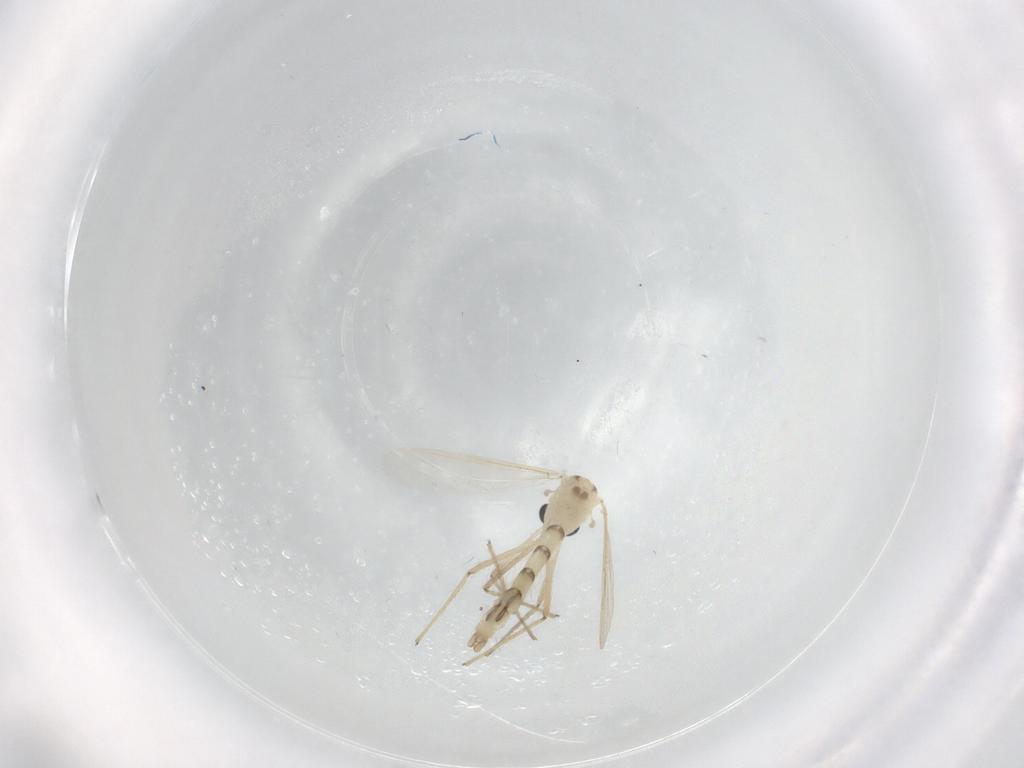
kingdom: Animalia
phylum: Arthropoda
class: Insecta
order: Diptera
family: Chironomidae
